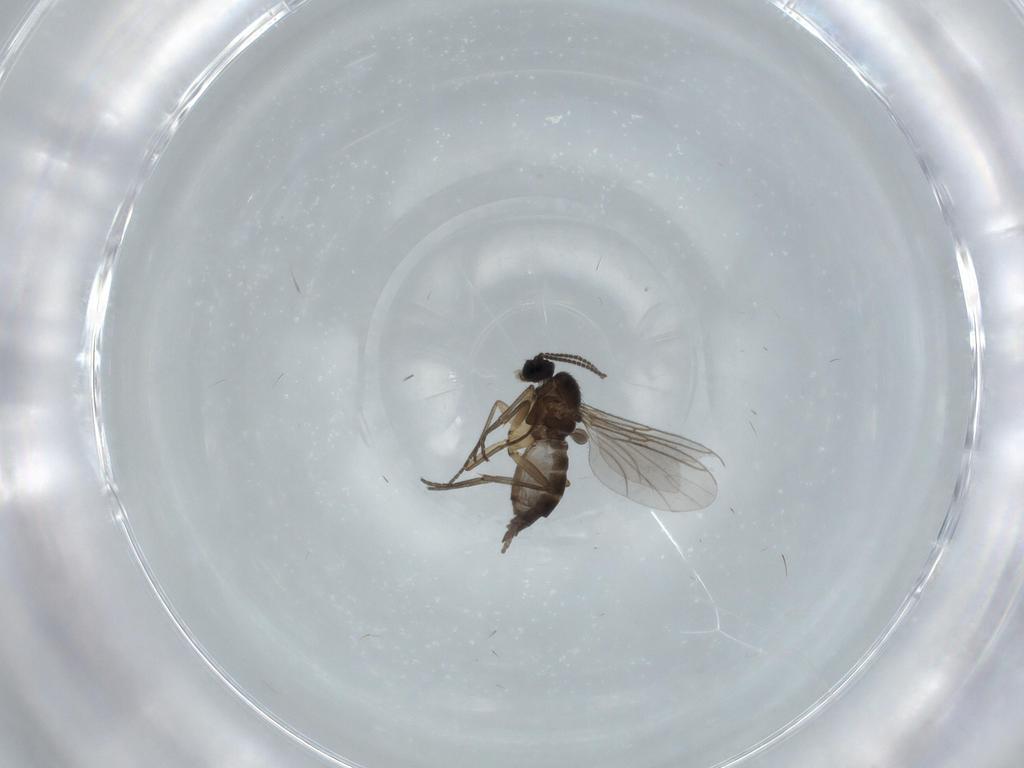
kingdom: Animalia
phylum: Arthropoda
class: Insecta
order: Diptera
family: Sciaridae
